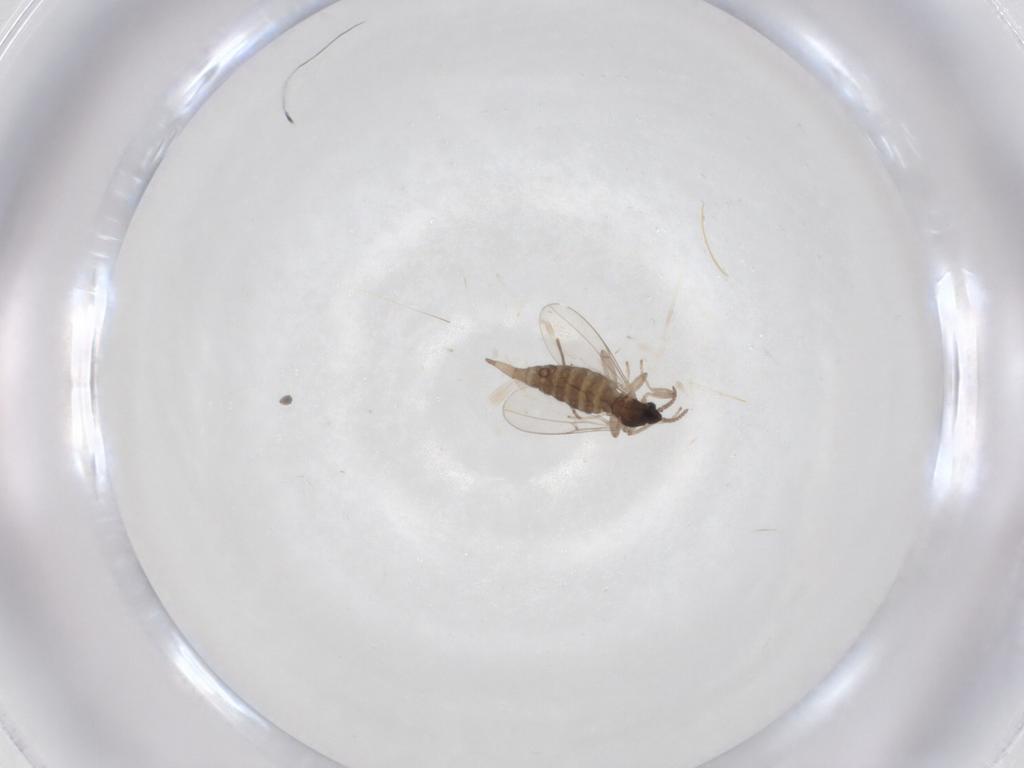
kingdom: Animalia
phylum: Arthropoda
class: Insecta
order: Diptera
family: Cecidomyiidae
